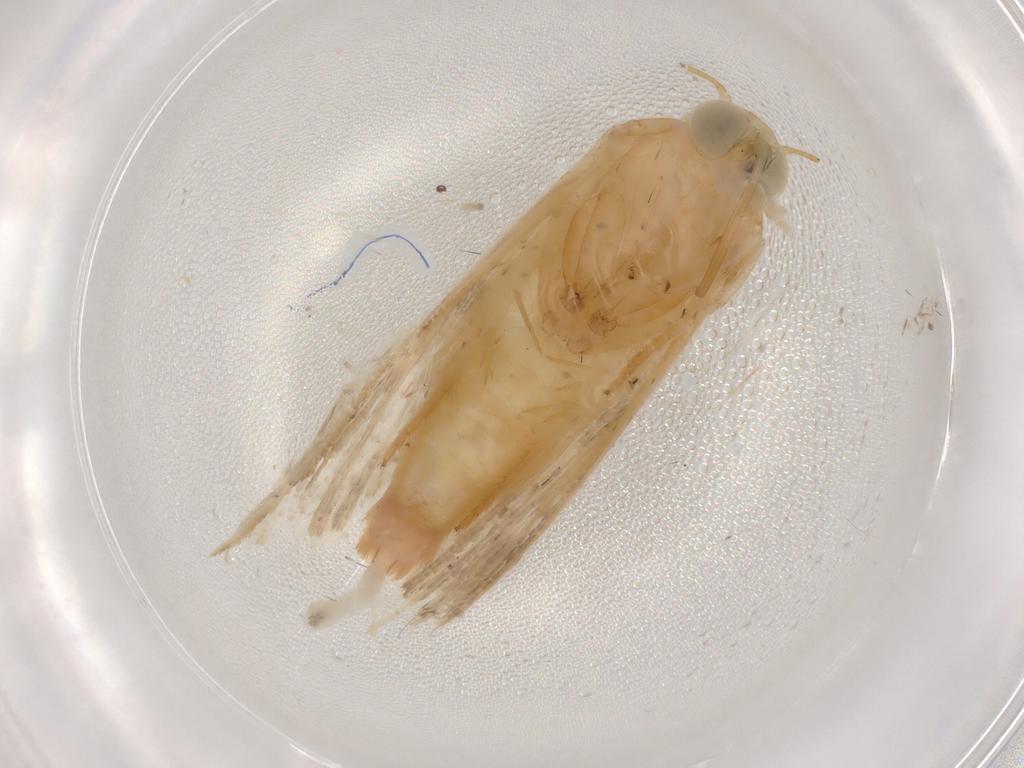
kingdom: Animalia
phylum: Arthropoda
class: Insecta
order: Lepidoptera
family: Noctuidae
